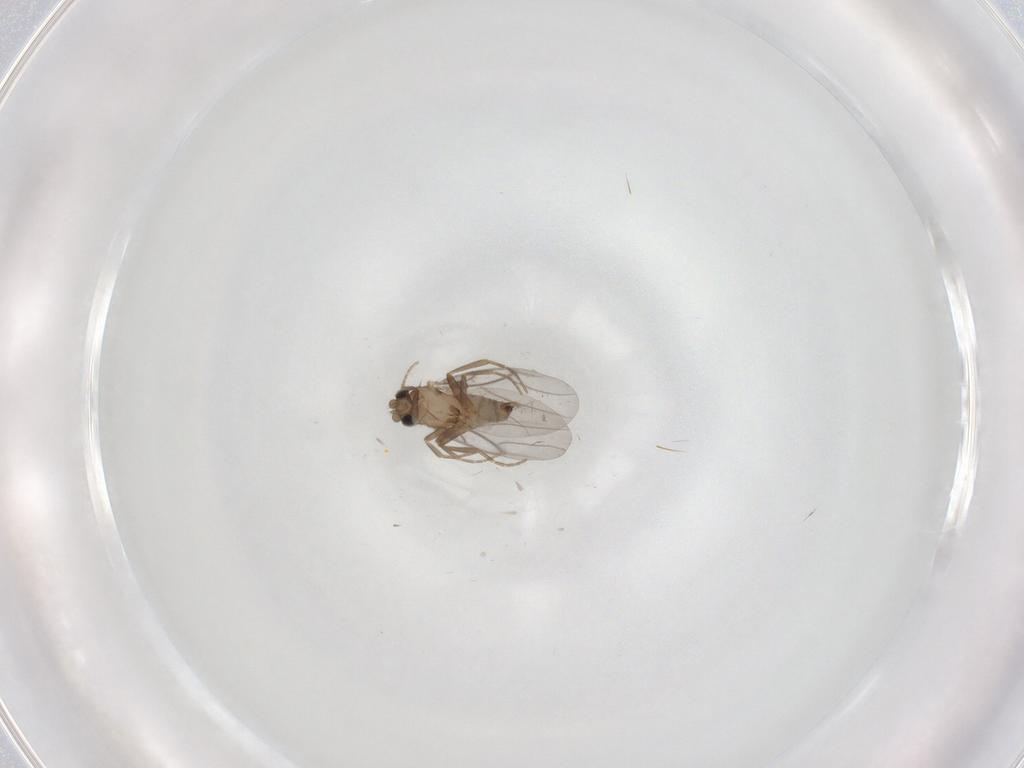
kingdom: Animalia
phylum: Arthropoda
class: Insecta
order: Diptera
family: Cecidomyiidae
